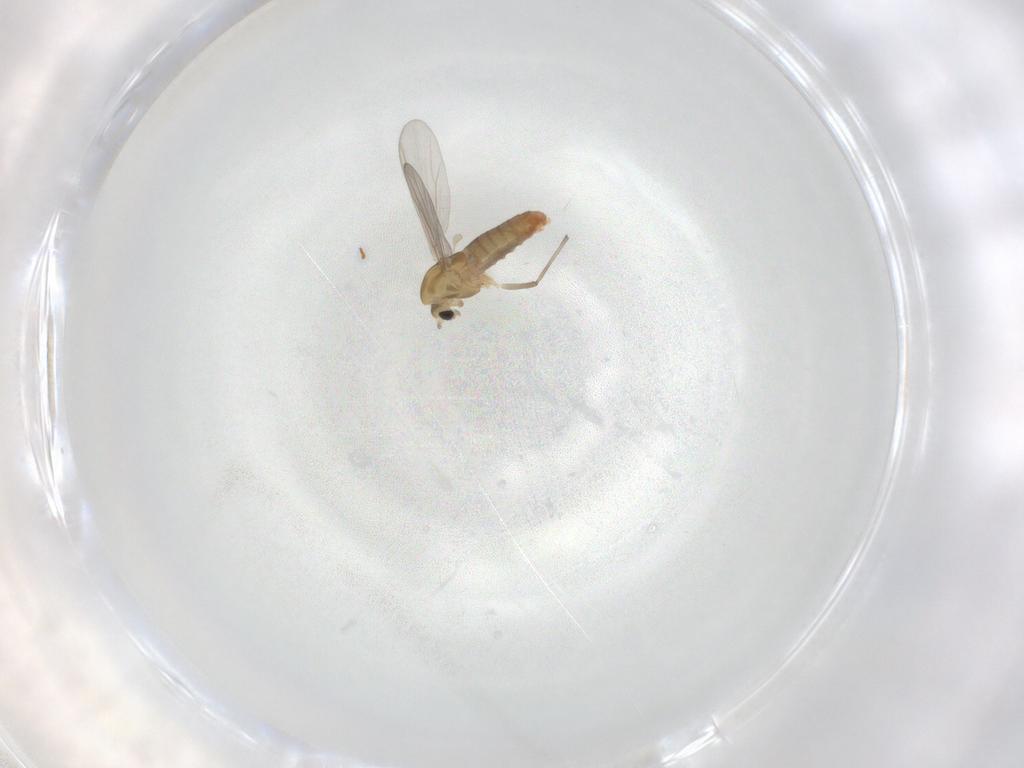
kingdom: Animalia
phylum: Arthropoda
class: Insecta
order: Diptera
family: Chironomidae
